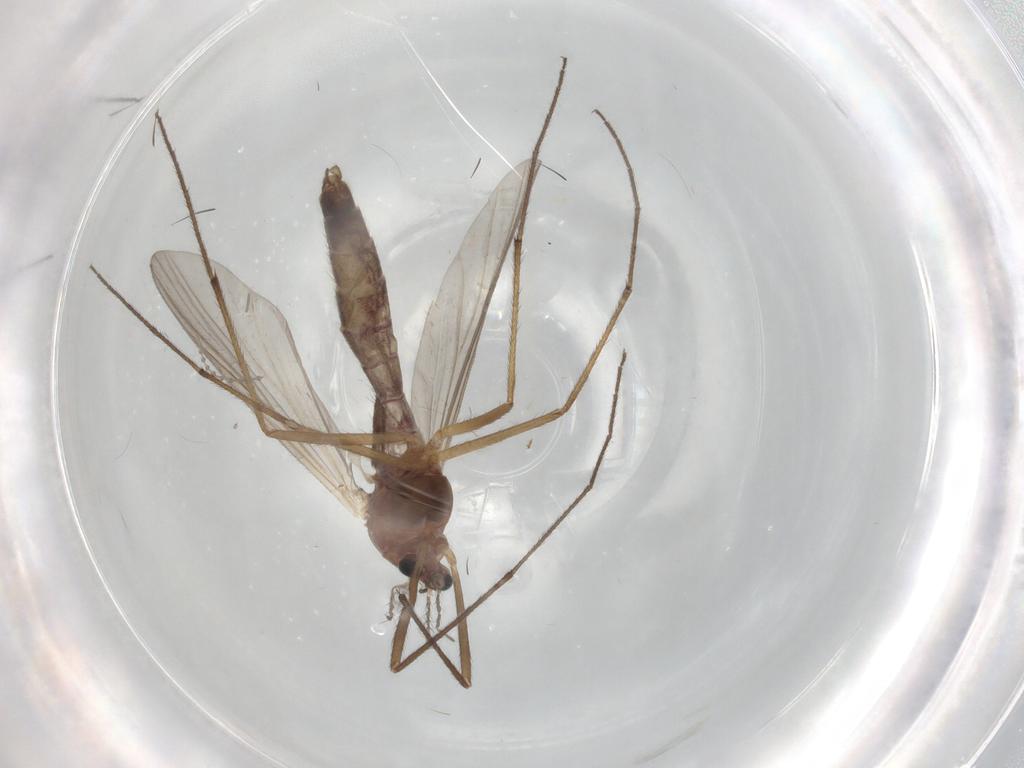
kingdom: Animalia
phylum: Arthropoda
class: Insecta
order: Diptera
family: Chironomidae
